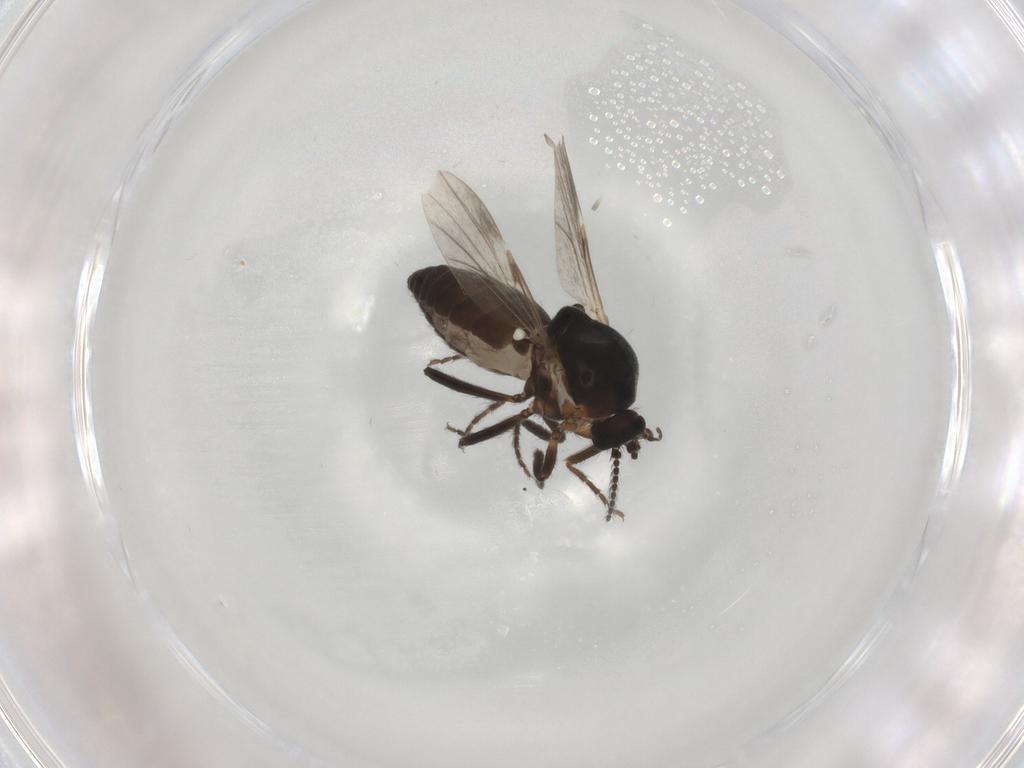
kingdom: Animalia
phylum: Arthropoda
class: Insecta
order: Diptera
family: Ceratopogonidae
